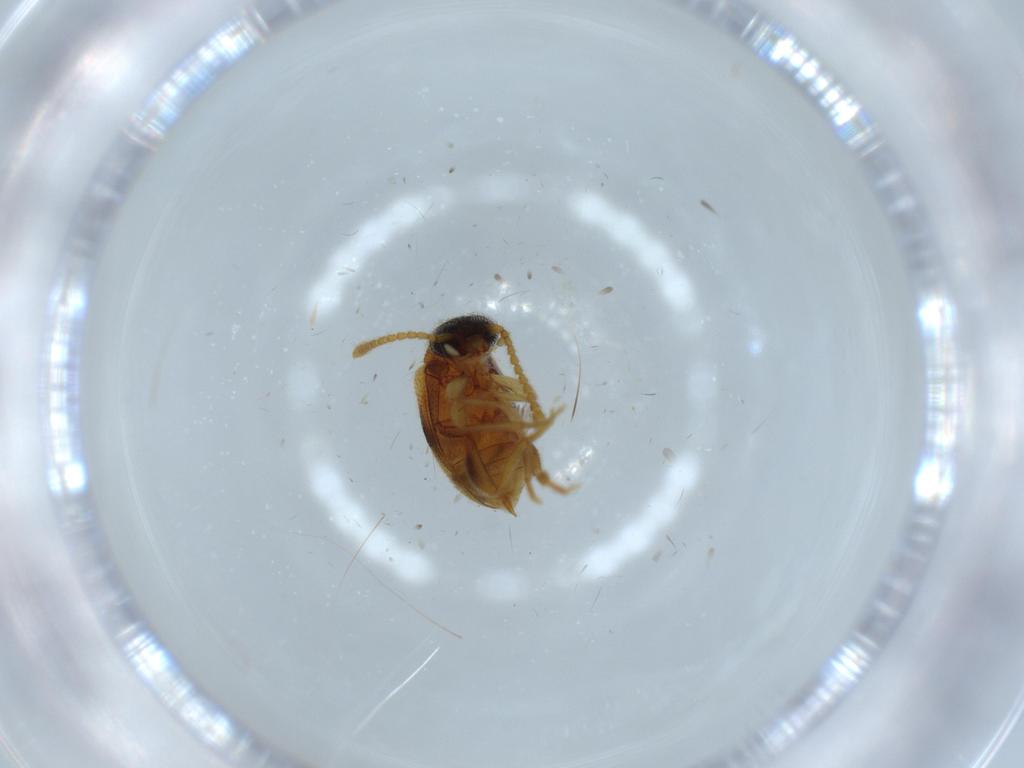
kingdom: Animalia
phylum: Arthropoda
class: Insecta
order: Coleoptera
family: Aderidae
